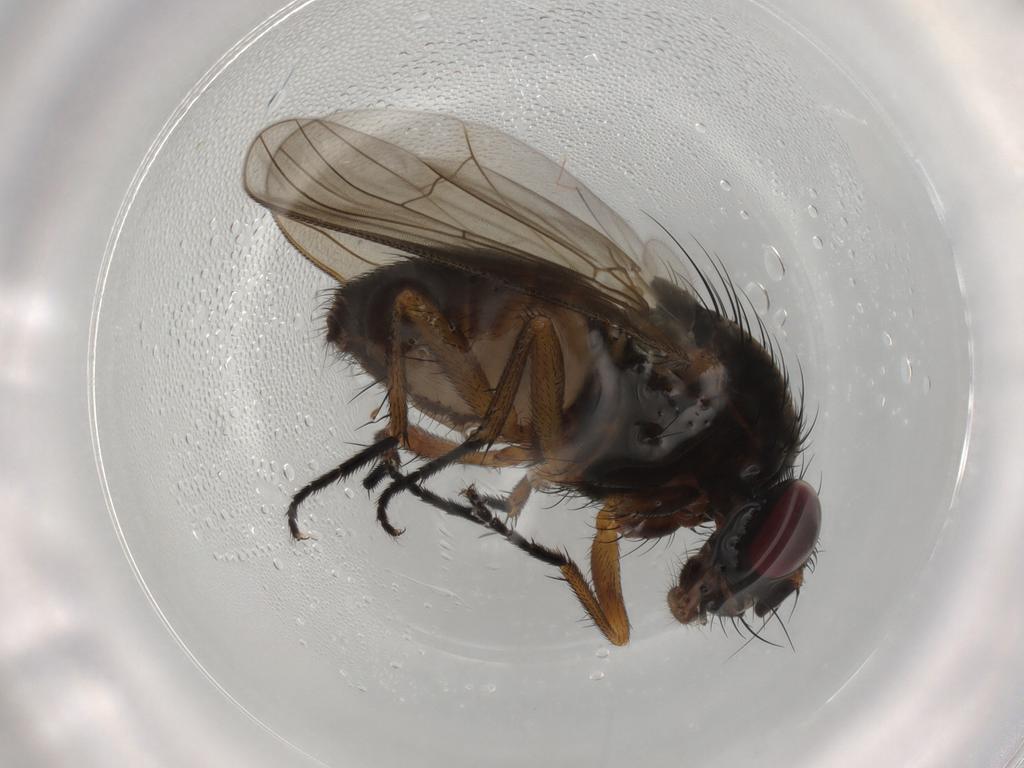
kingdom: Animalia
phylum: Arthropoda
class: Insecta
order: Diptera
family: Fanniidae
